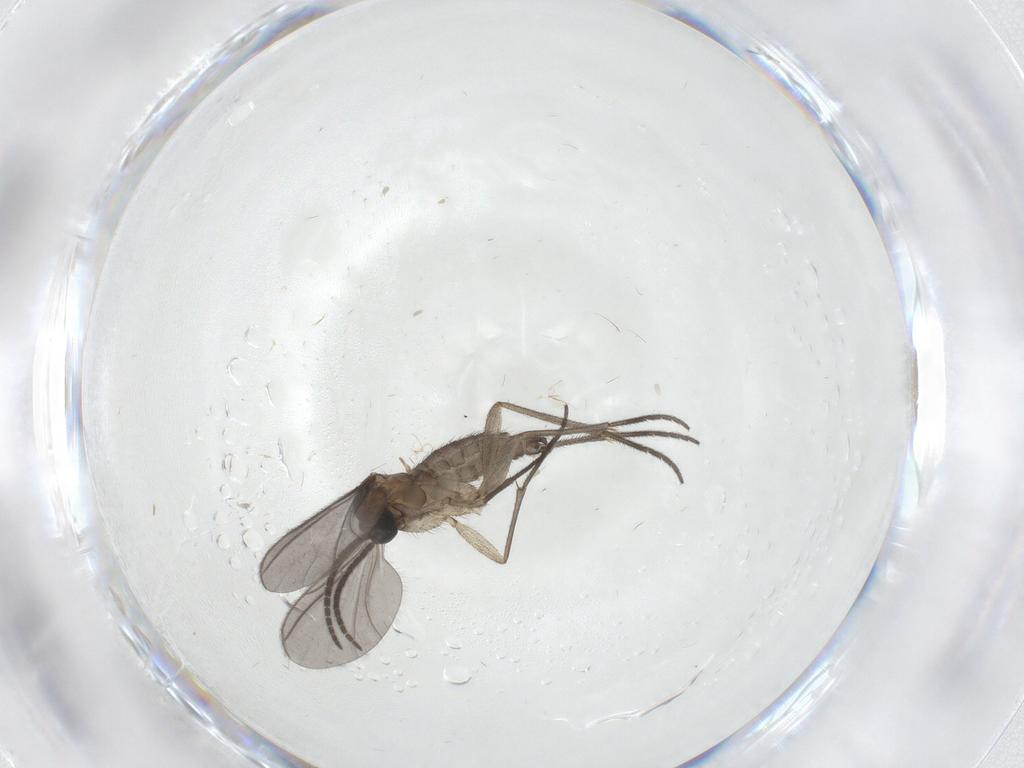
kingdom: Animalia
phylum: Arthropoda
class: Insecta
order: Diptera
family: Sciaridae
